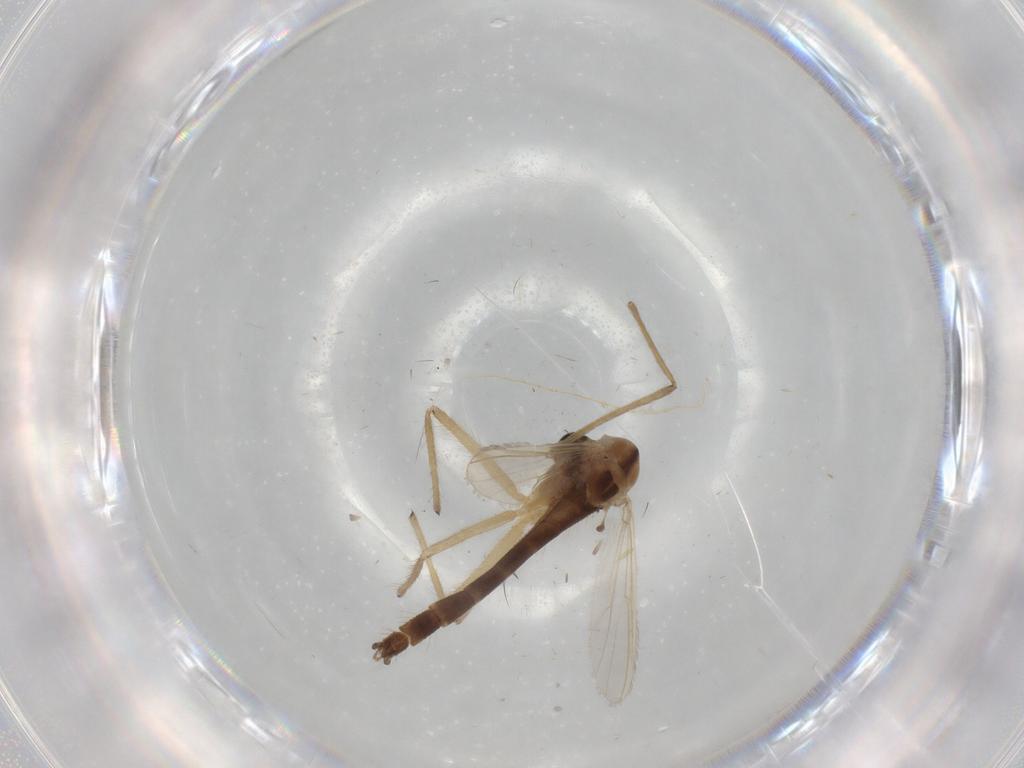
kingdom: Animalia
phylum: Arthropoda
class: Insecta
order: Diptera
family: Chironomidae
